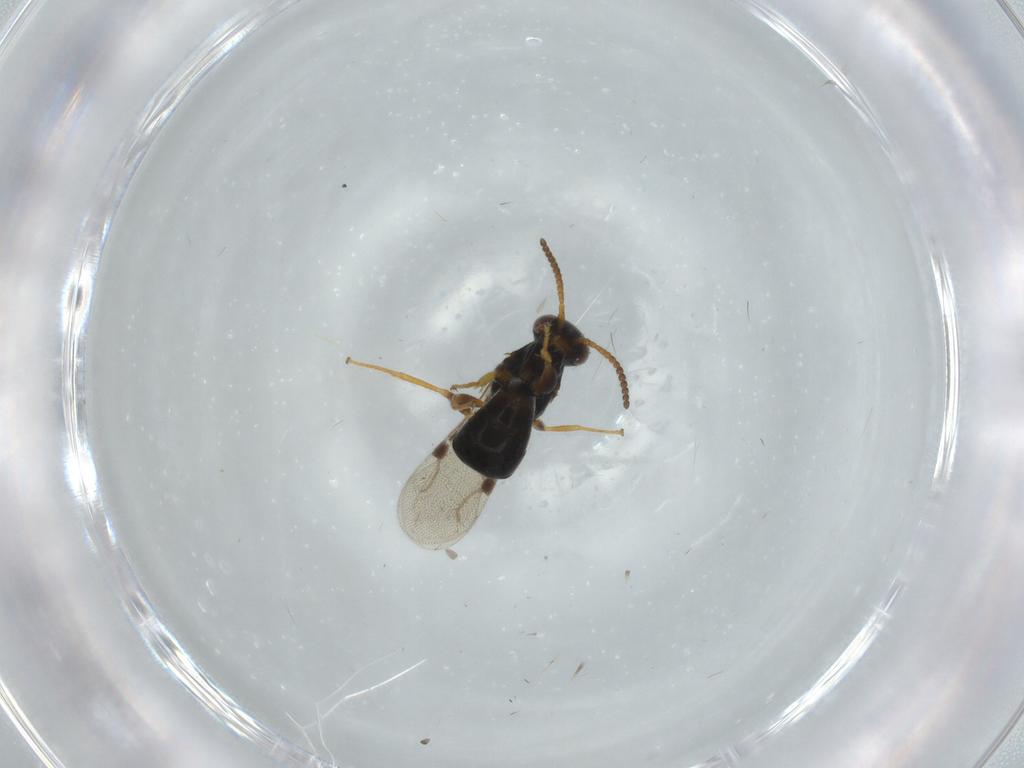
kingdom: Animalia
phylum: Arthropoda
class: Insecta
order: Hymenoptera
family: Bethylidae
